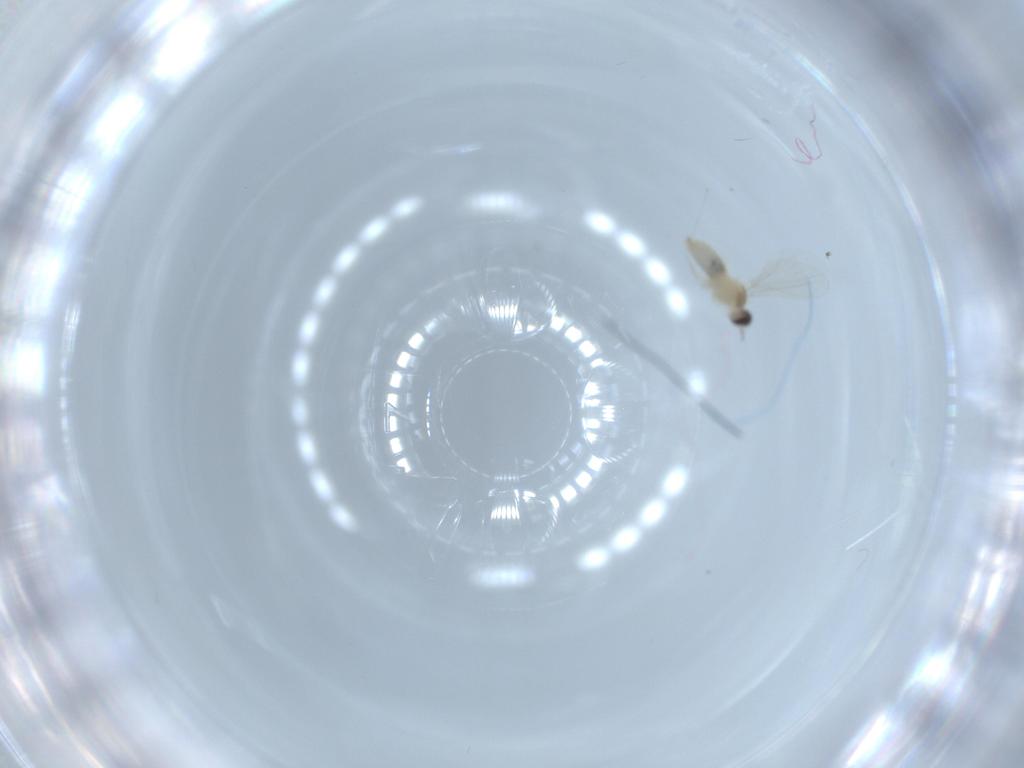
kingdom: Animalia
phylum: Arthropoda
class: Insecta
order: Diptera
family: Cecidomyiidae
